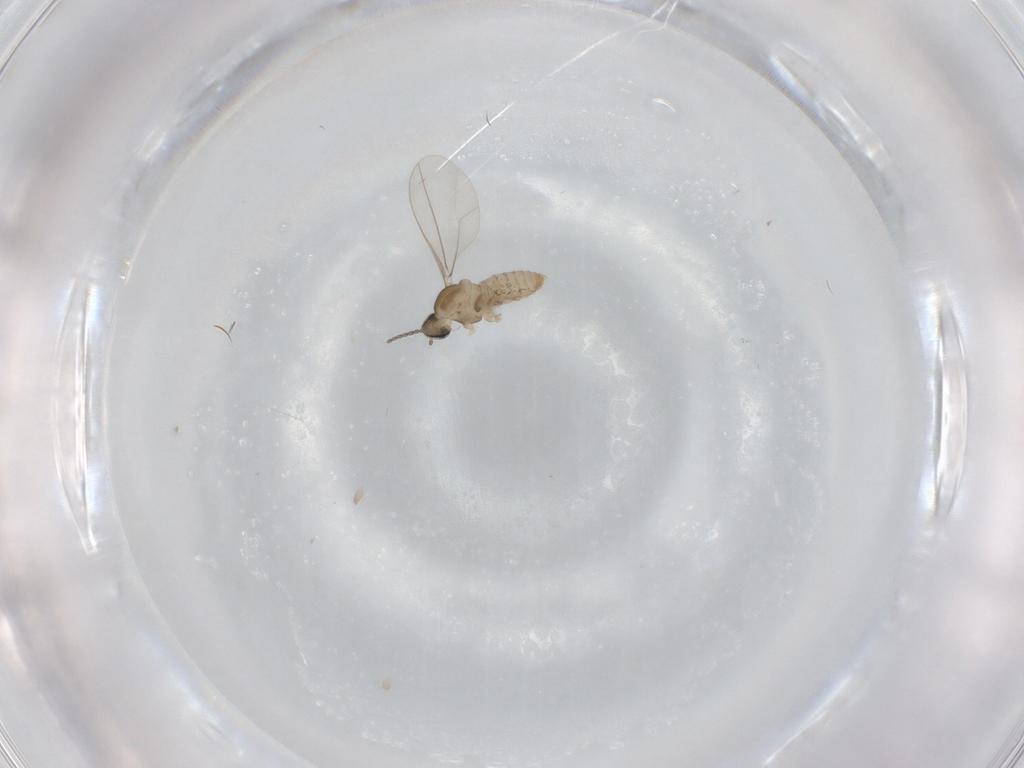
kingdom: Animalia
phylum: Arthropoda
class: Insecta
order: Diptera
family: Cecidomyiidae
